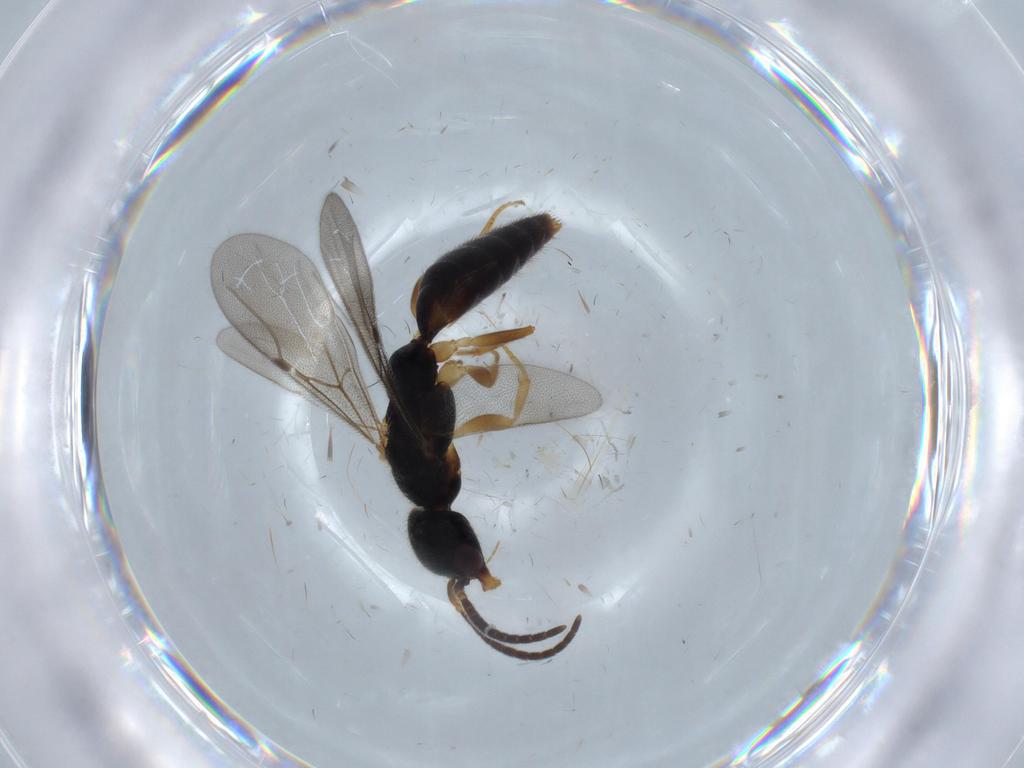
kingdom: Animalia
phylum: Arthropoda
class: Insecta
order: Hymenoptera
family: Bethylidae
